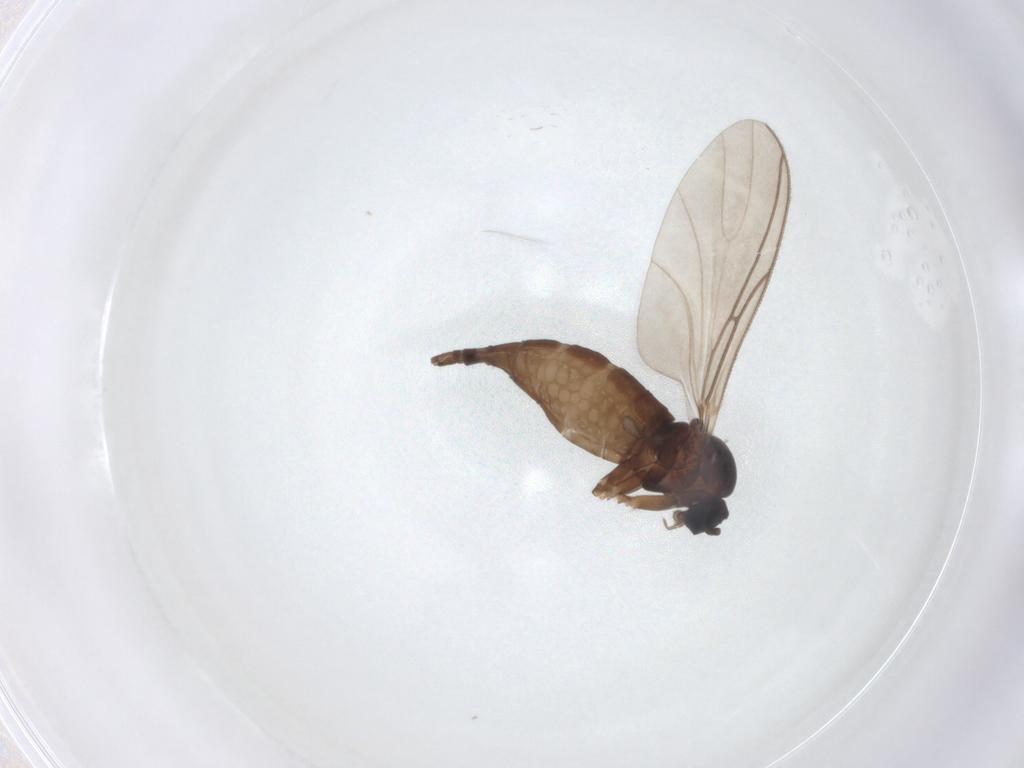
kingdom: Animalia
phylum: Arthropoda
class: Insecta
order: Diptera
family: Sciaridae
